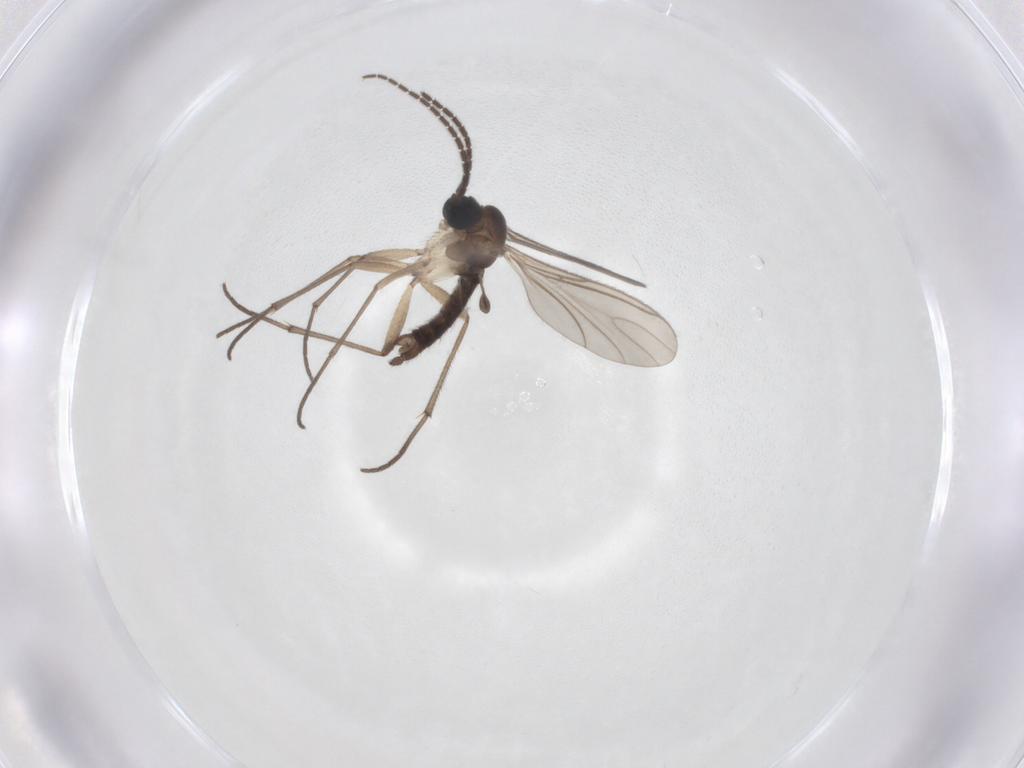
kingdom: Animalia
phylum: Arthropoda
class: Insecta
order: Diptera
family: Sciaridae
